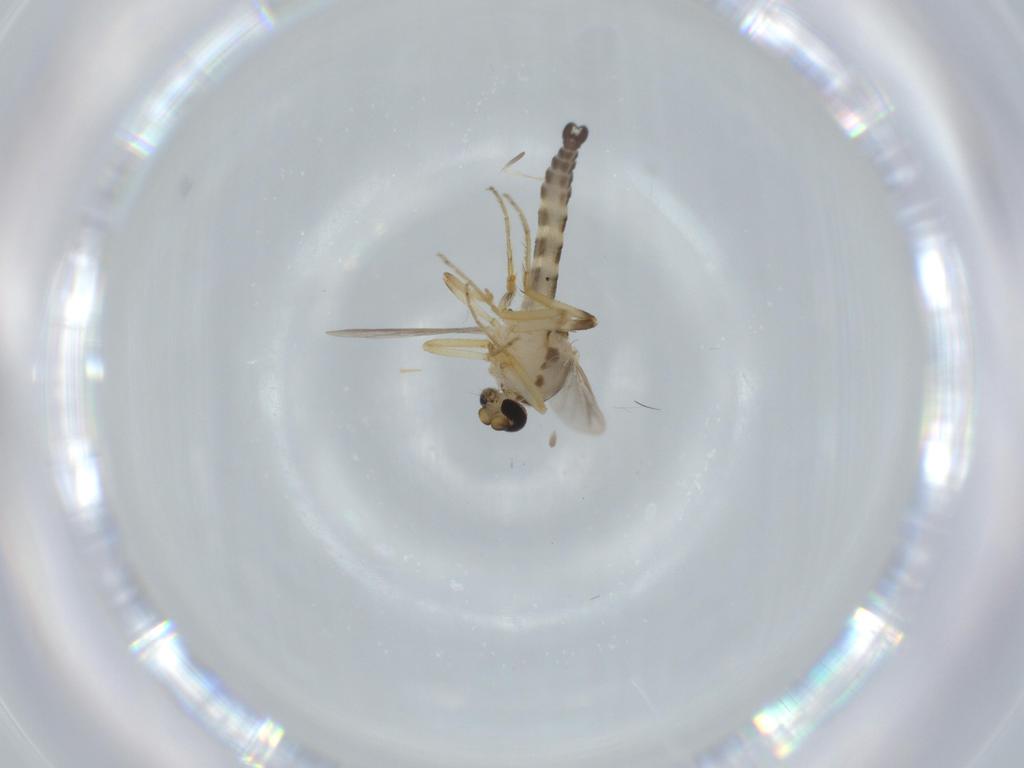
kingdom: Animalia
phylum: Arthropoda
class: Insecta
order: Diptera
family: Ceratopogonidae
